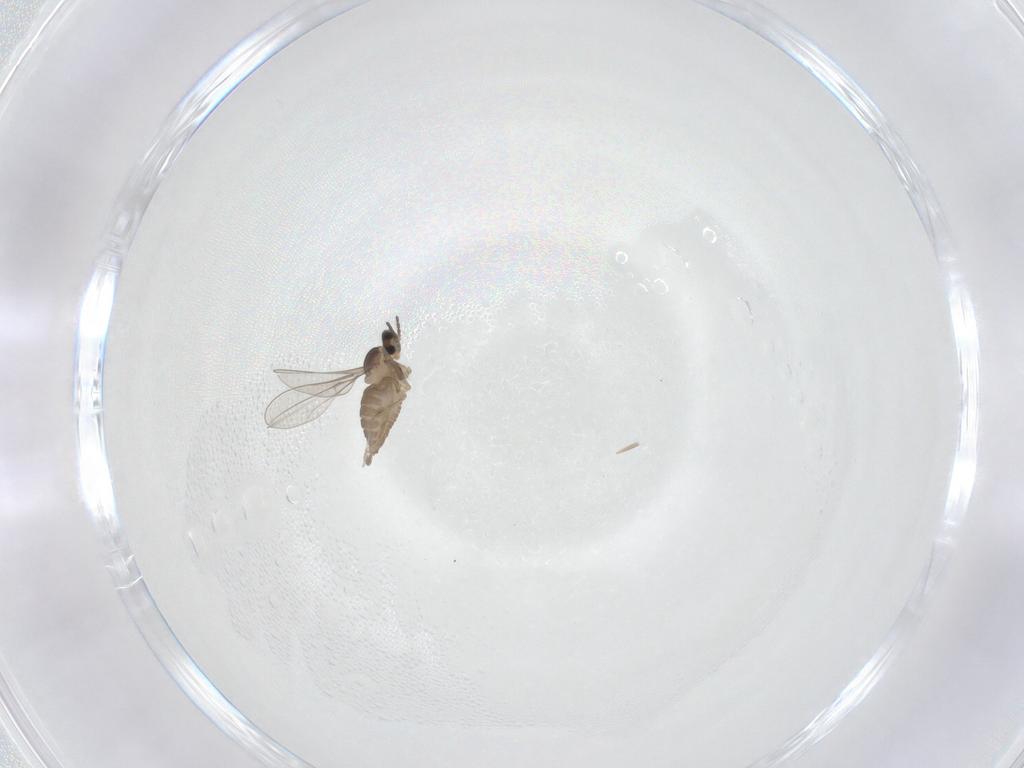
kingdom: Animalia
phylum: Arthropoda
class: Insecta
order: Diptera
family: Cecidomyiidae
